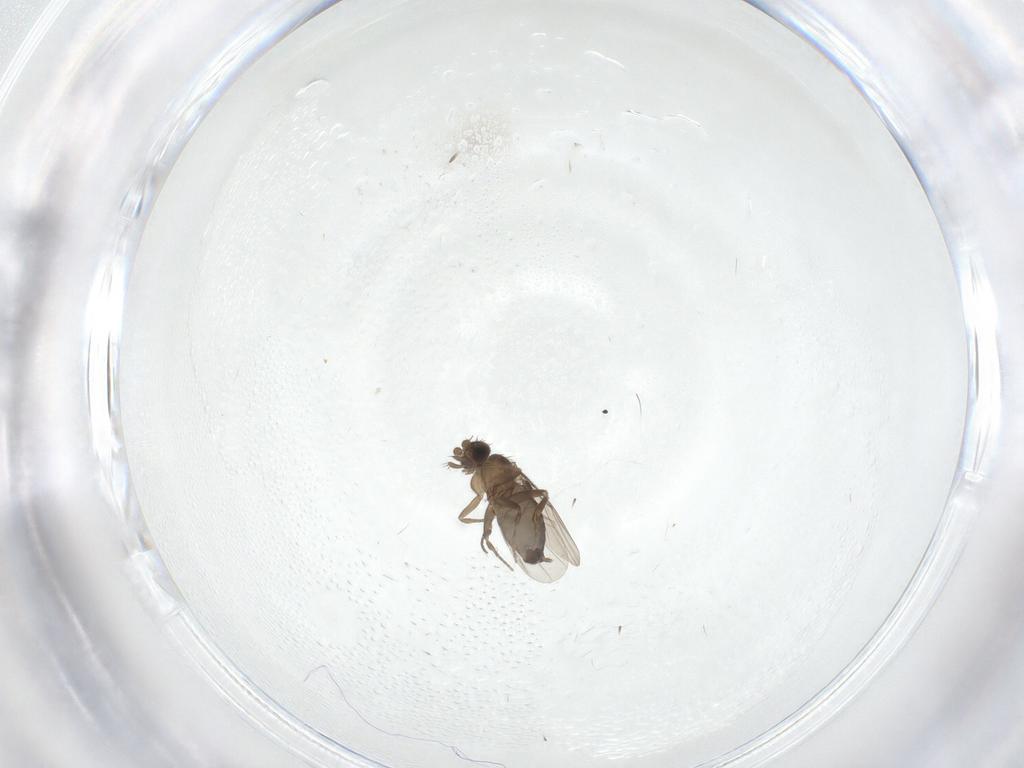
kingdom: Animalia
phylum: Arthropoda
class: Insecta
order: Diptera
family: Phoridae
